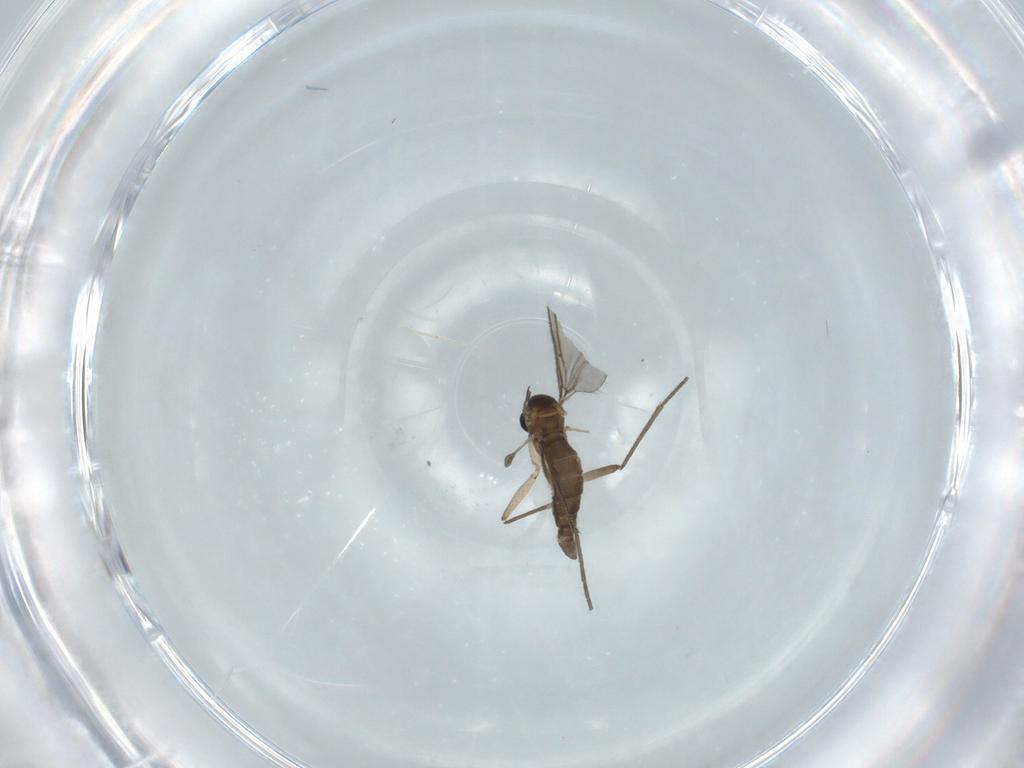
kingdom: Animalia
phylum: Arthropoda
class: Insecta
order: Diptera
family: Sciaridae
